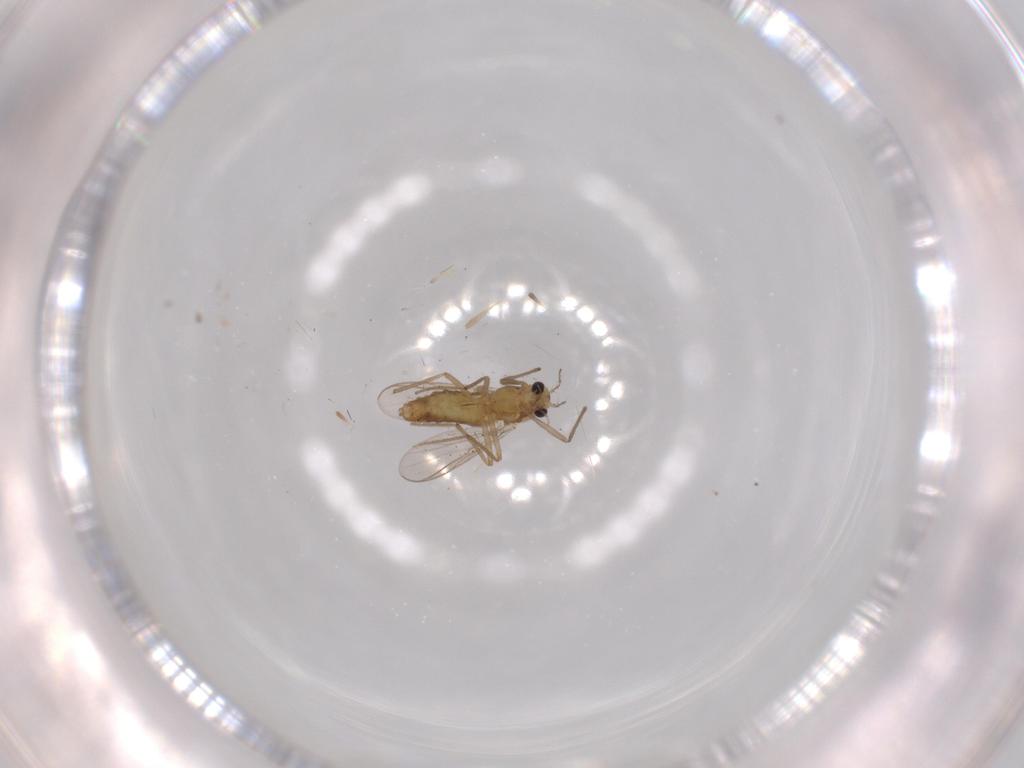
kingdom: Animalia
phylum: Arthropoda
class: Insecta
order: Diptera
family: Chironomidae
